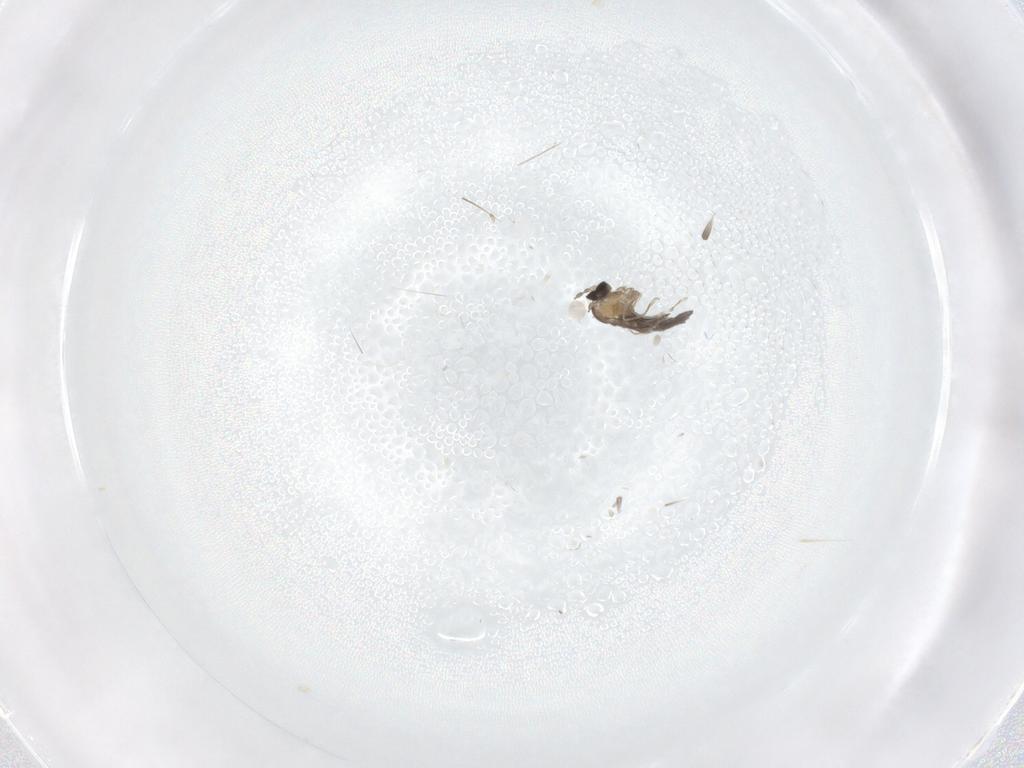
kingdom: Animalia
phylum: Arthropoda
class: Insecta
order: Diptera
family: Cecidomyiidae
